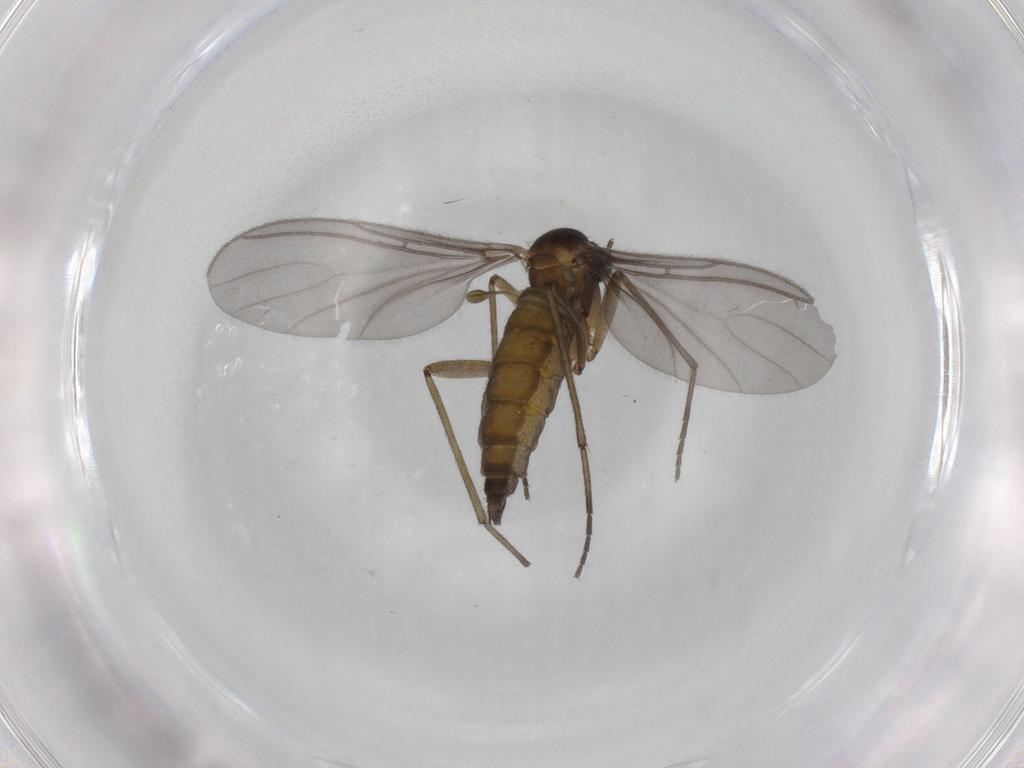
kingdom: Animalia
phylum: Arthropoda
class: Insecta
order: Diptera
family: Sciaridae
